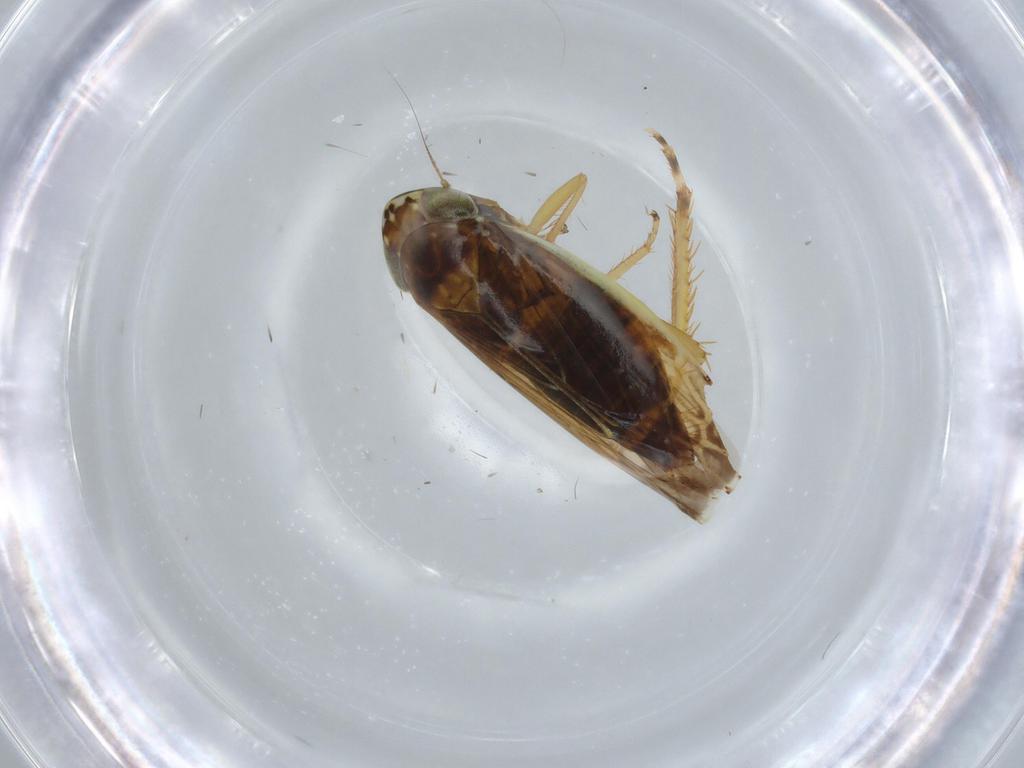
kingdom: Animalia
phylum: Arthropoda
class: Insecta
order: Hemiptera
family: Cicadellidae
